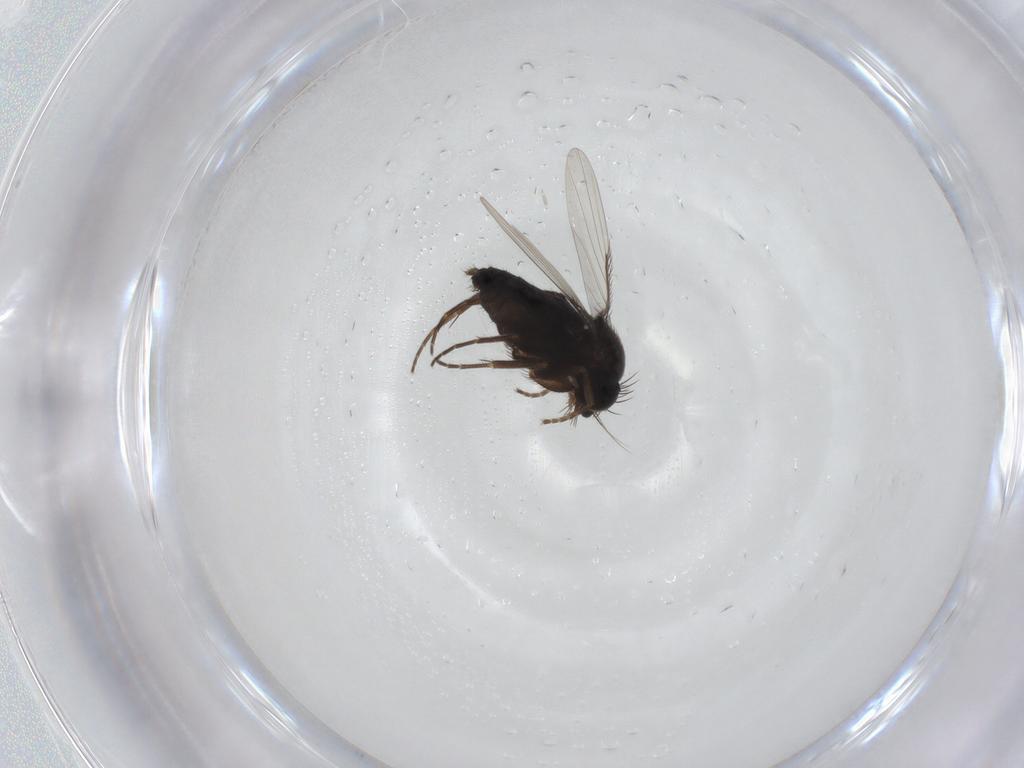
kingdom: Animalia
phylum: Arthropoda
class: Insecta
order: Diptera
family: Phoridae
